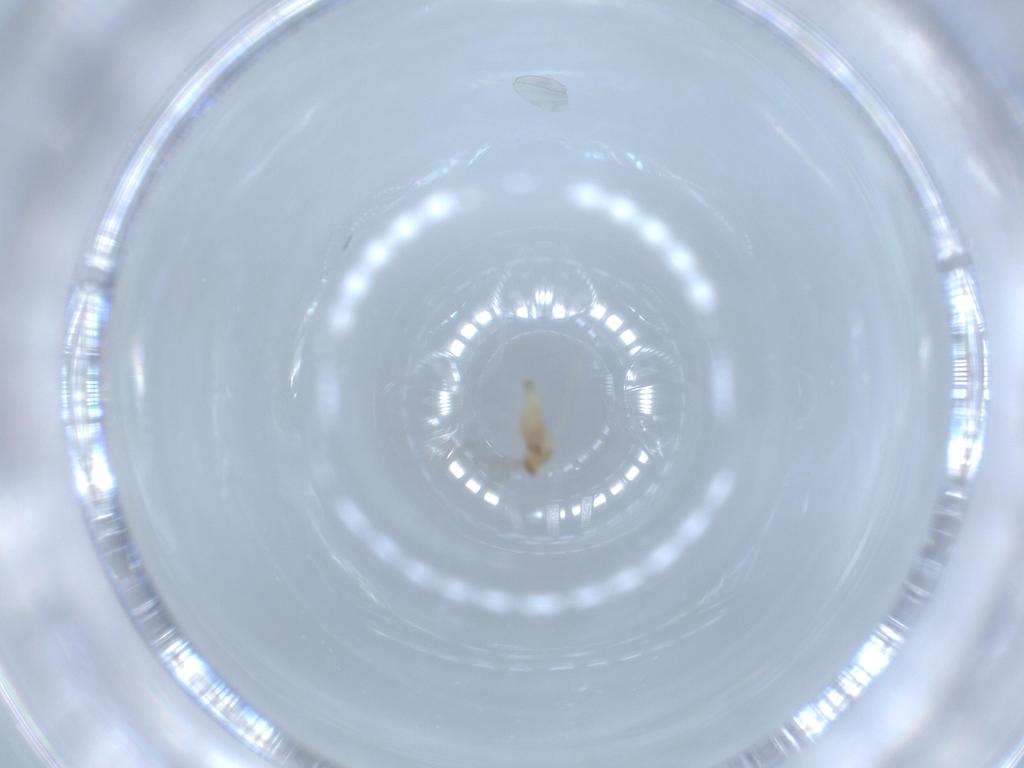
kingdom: Animalia
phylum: Arthropoda
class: Insecta
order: Diptera
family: Cecidomyiidae
